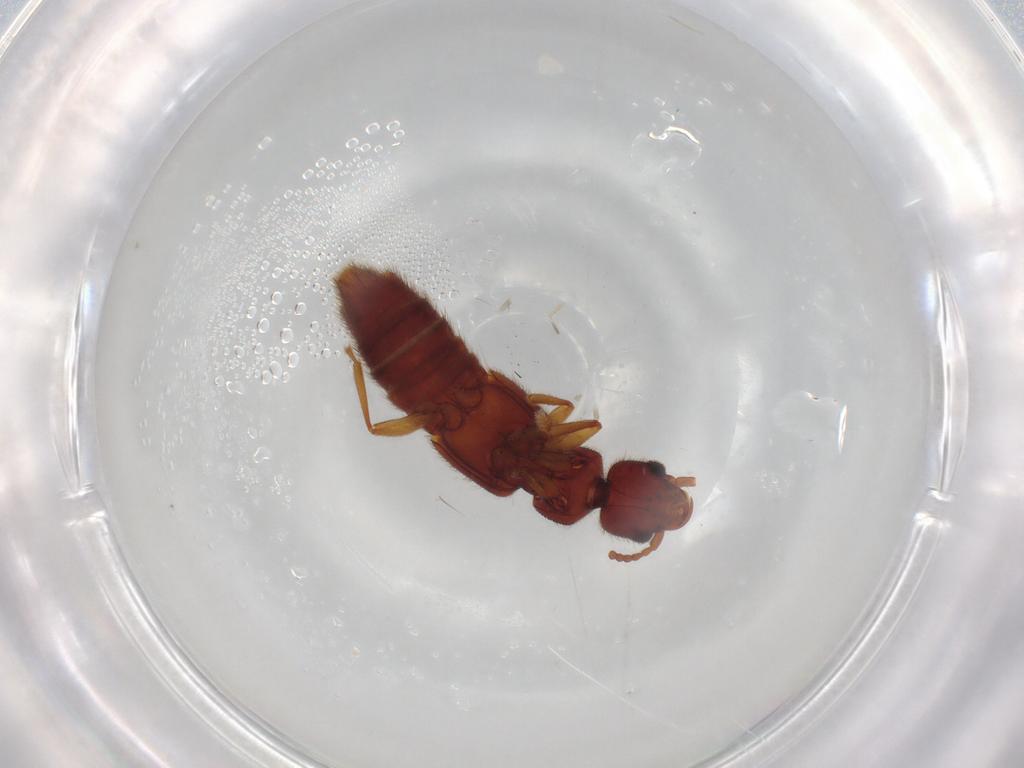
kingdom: Animalia
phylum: Arthropoda
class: Insecta
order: Coleoptera
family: Staphylinidae
